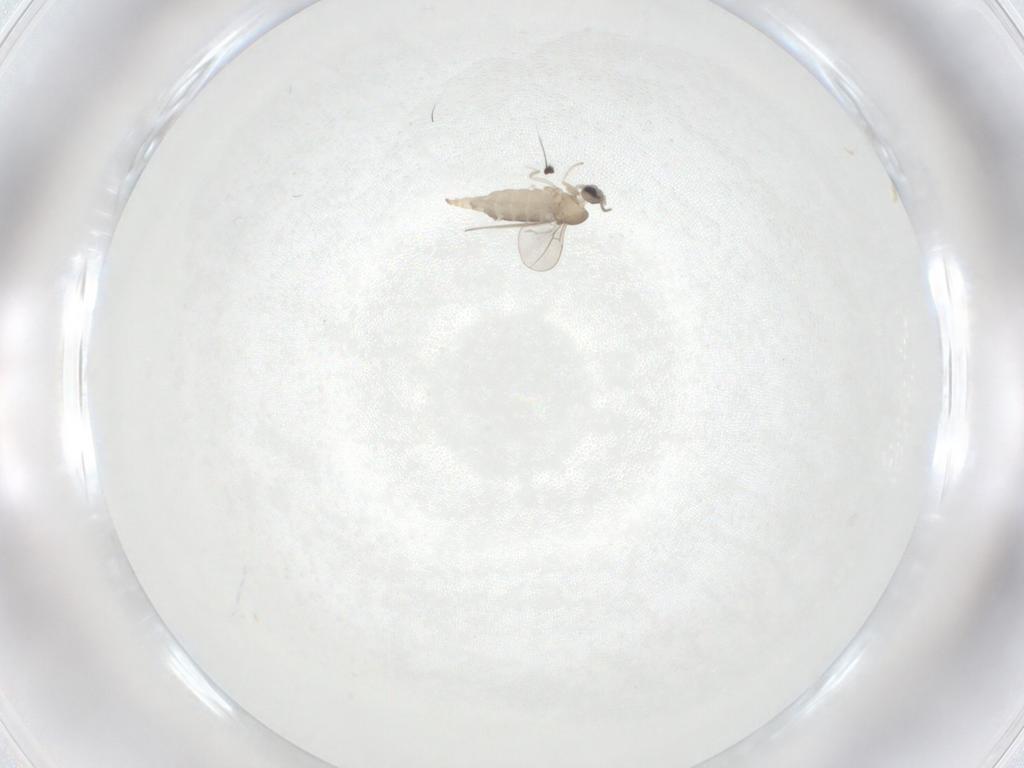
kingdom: Animalia
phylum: Arthropoda
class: Insecta
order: Diptera
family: Cecidomyiidae
